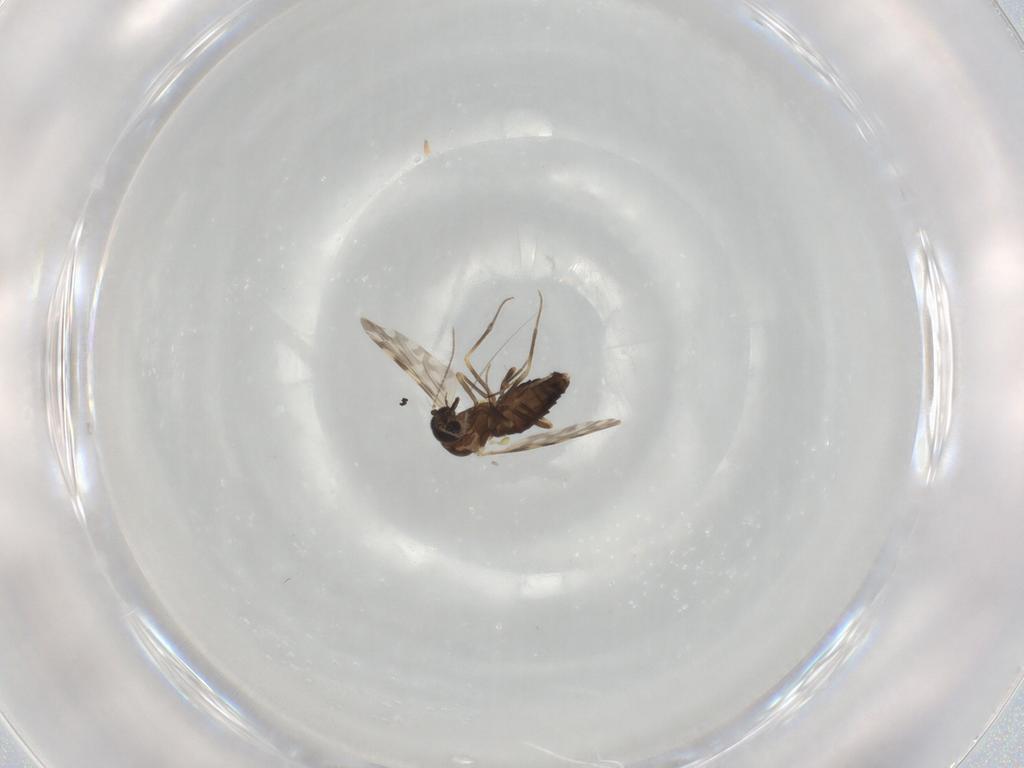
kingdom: Animalia
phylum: Arthropoda
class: Insecta
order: Diptera
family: Ceratopogonidae
